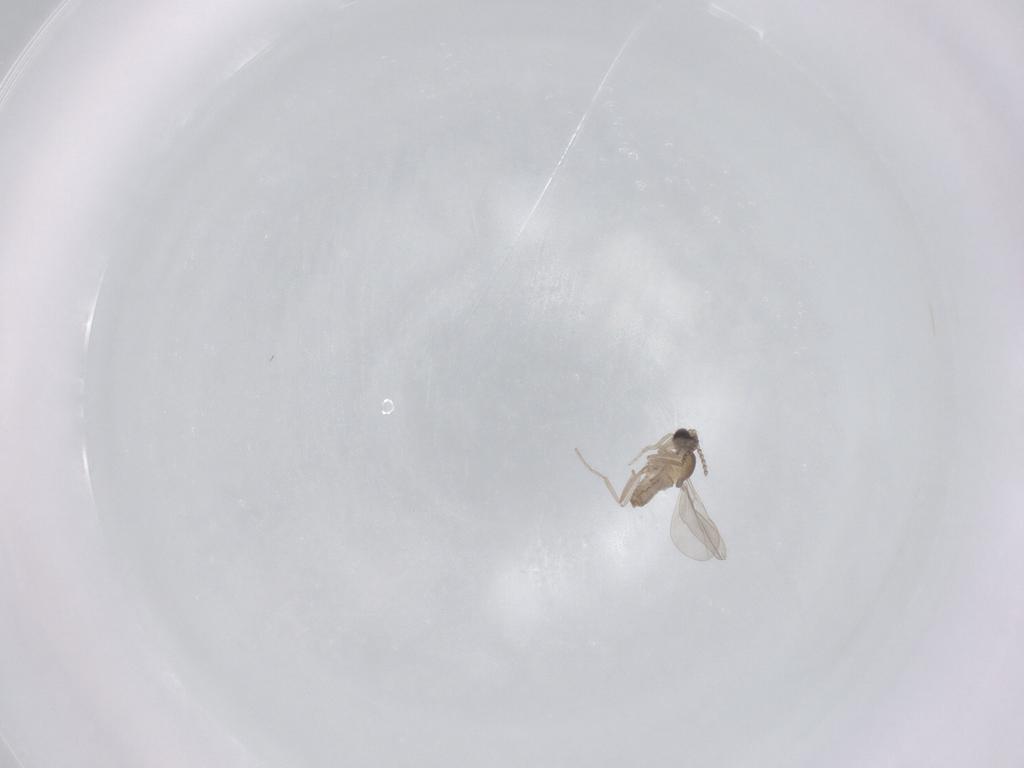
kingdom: Animalia
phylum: Arthropoda
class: Insecta
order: Diptera
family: Cecidomyiidae
